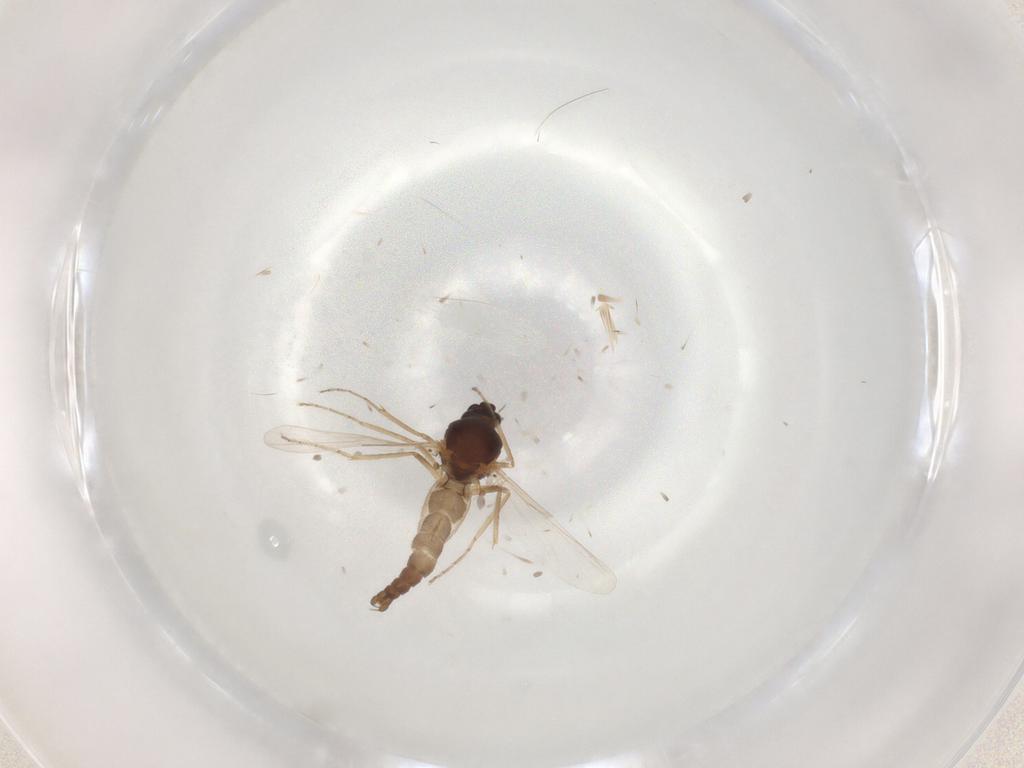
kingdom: Animalia
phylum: Arthropoda
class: Insecta
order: Diptera
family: Ceratopogonidae
